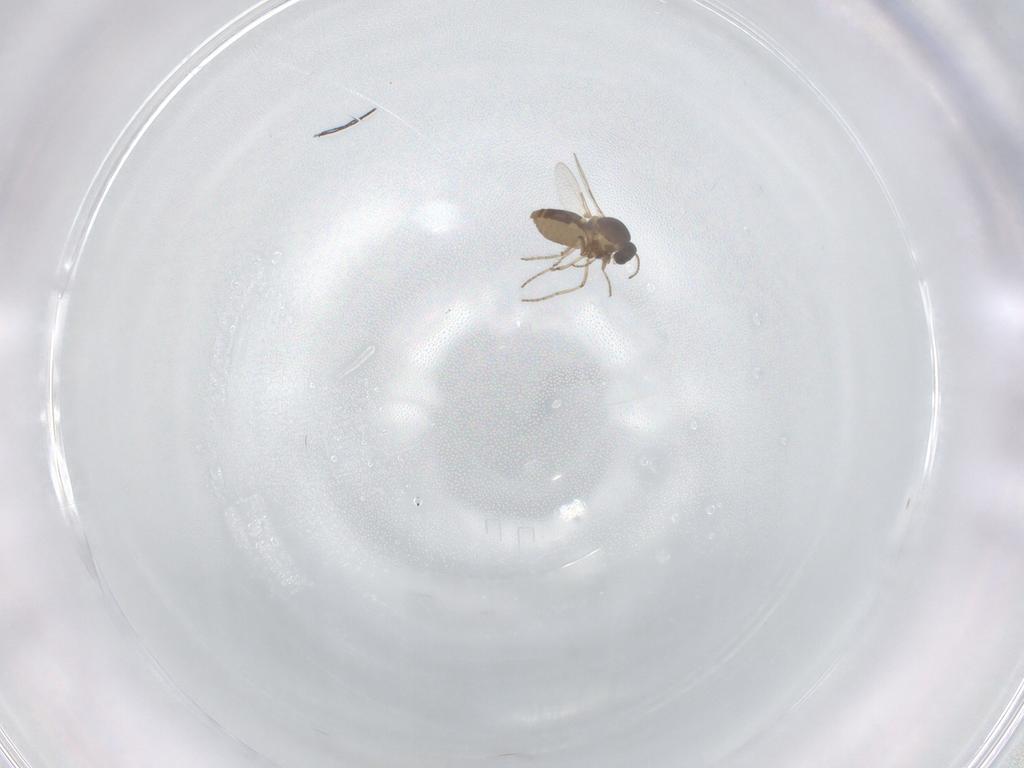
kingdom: Animalia
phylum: Arthropoda
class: Insecta
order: Diptera
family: Ceratopogonidae
